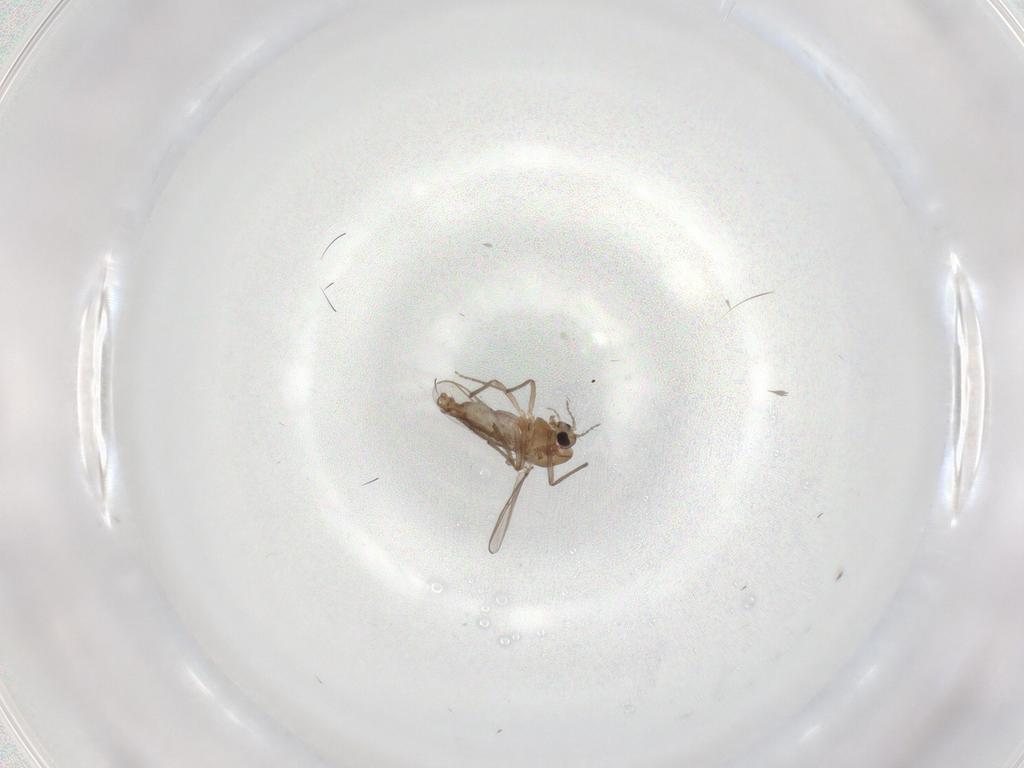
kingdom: Animalia
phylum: Arthropoda
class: Insecta
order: Diptera
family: Chironomidae
